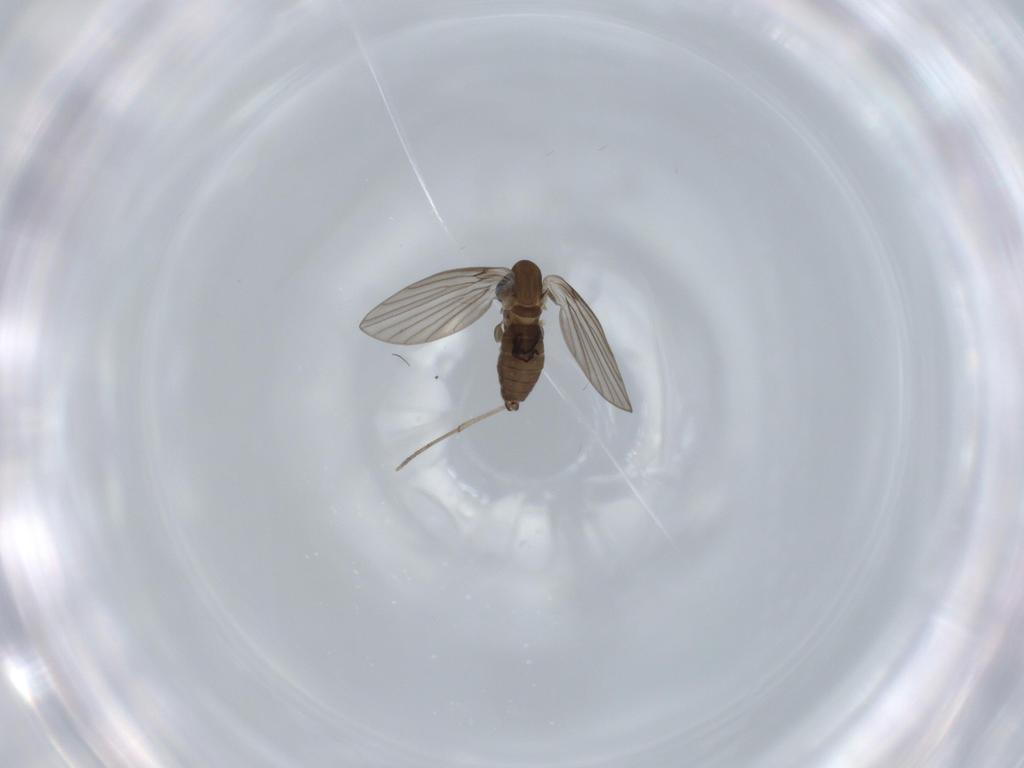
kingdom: Animalia
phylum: Arthropoda
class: Insecta
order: Diptera
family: Psychodidae
